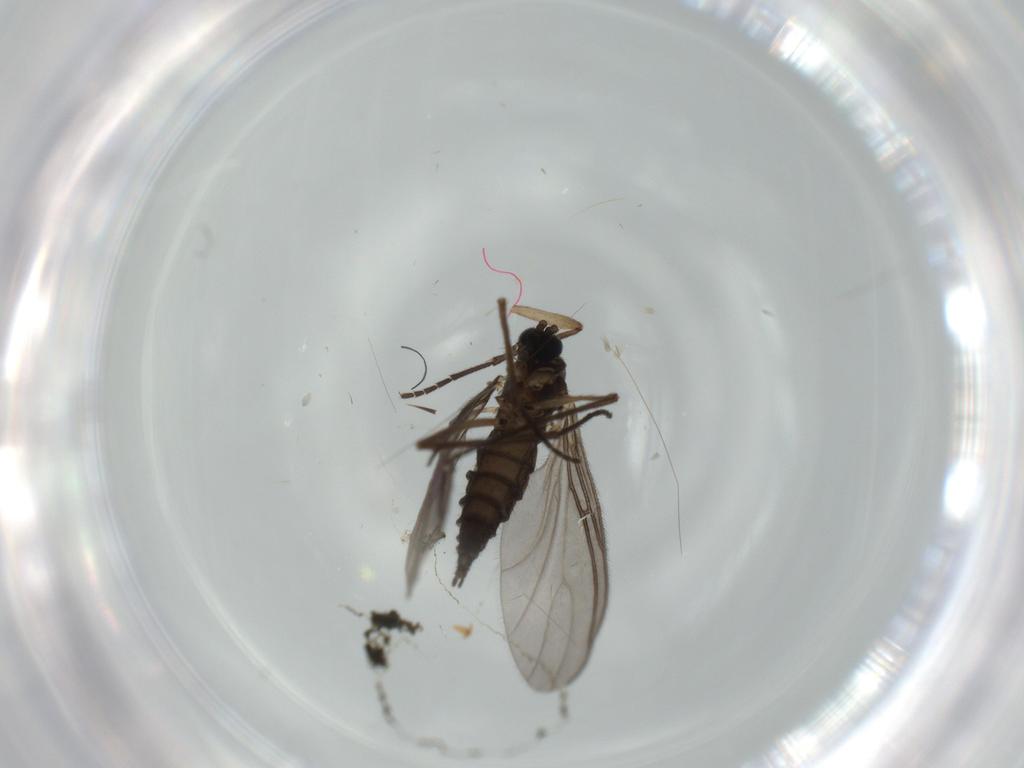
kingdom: Animalia
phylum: Arthropoda
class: Insecta
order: Diptera
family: Sciaridae
